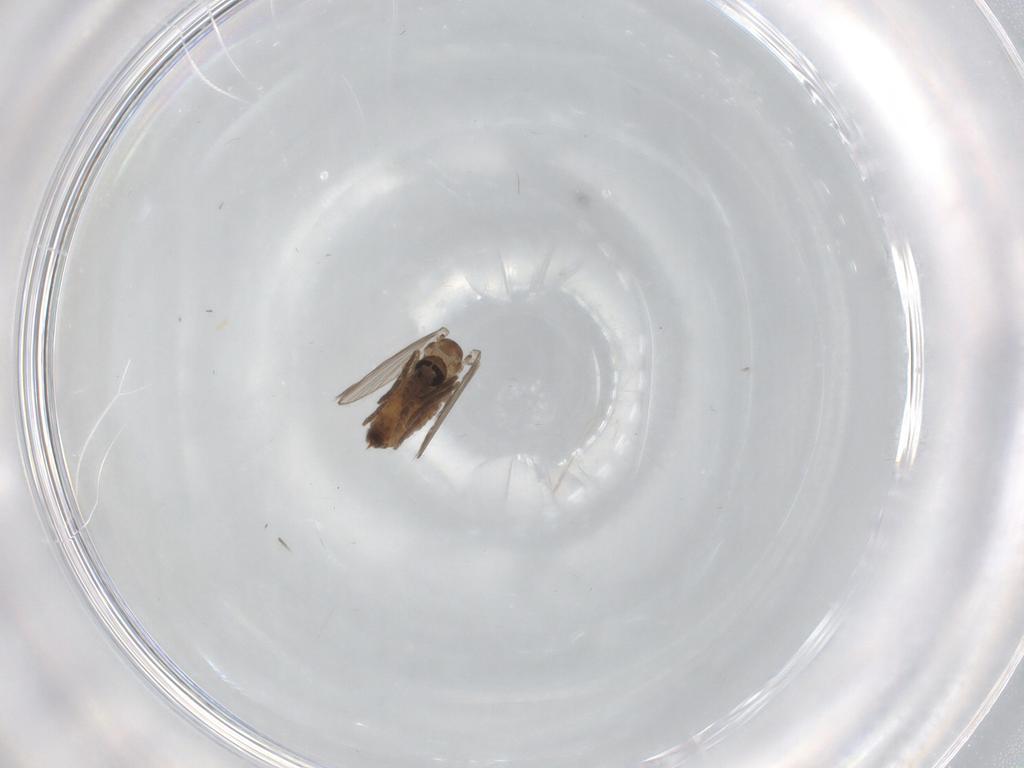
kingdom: Animalia
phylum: Arthropoda
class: Insecta
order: Diptera
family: Psychodidae
